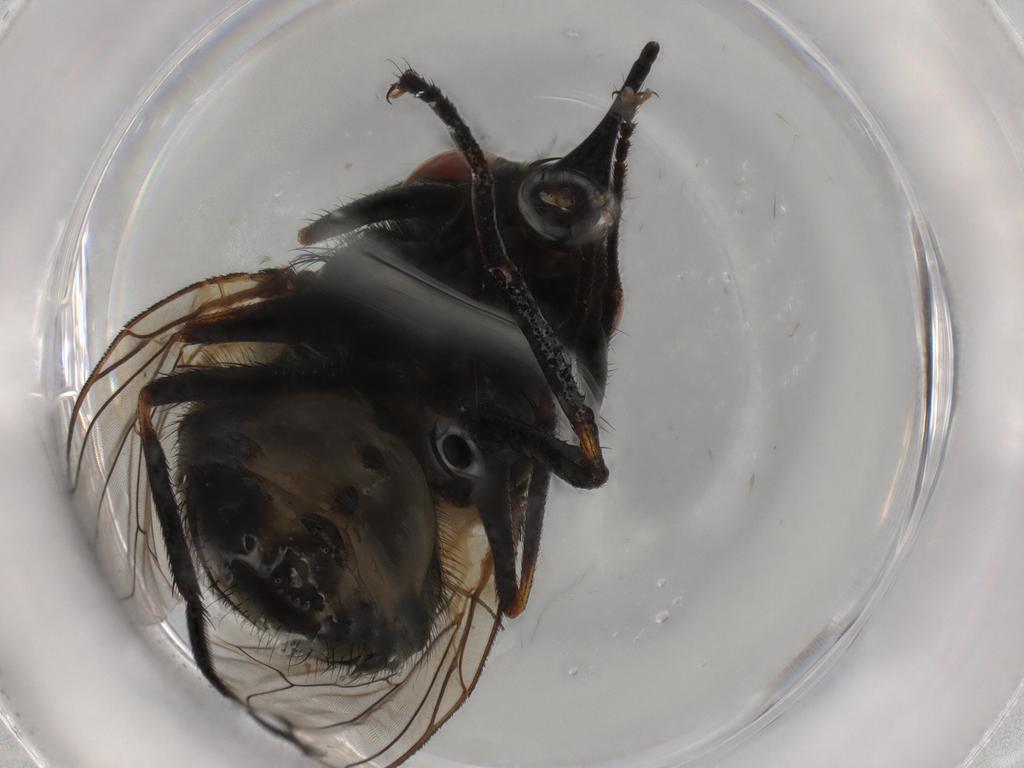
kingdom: Animalia
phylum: Arthropoda
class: Insecta
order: Diptera
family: Muscidae
